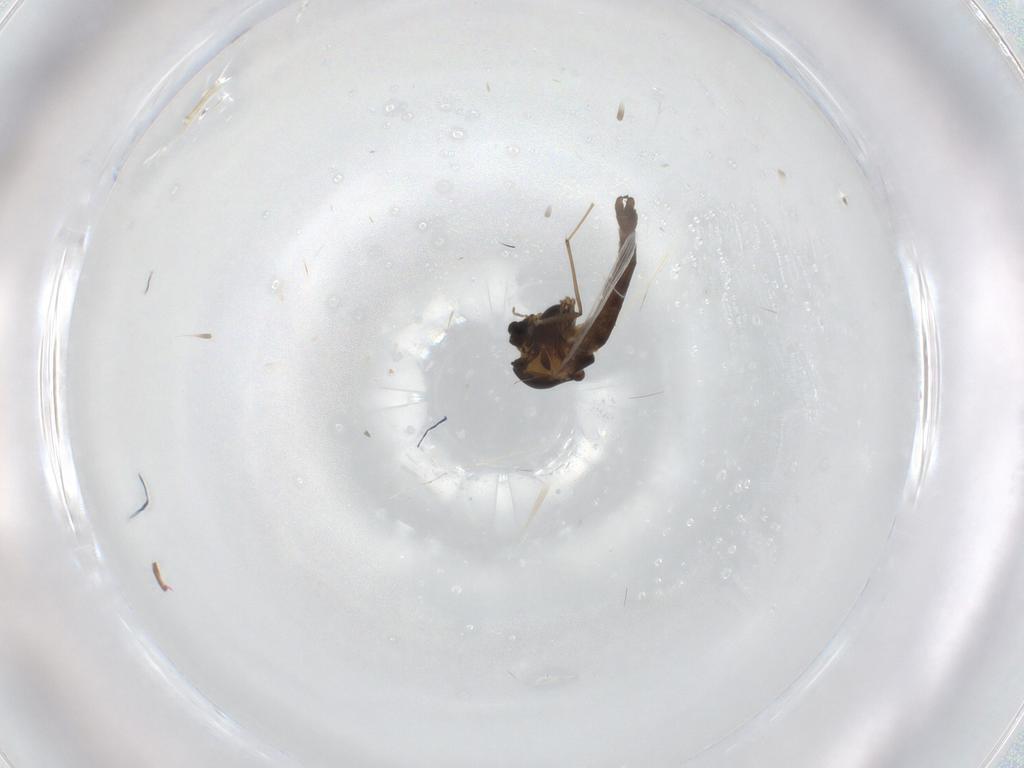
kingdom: Animalia
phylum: Arthropoda
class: Insecta
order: Diptera
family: Chironomidae
